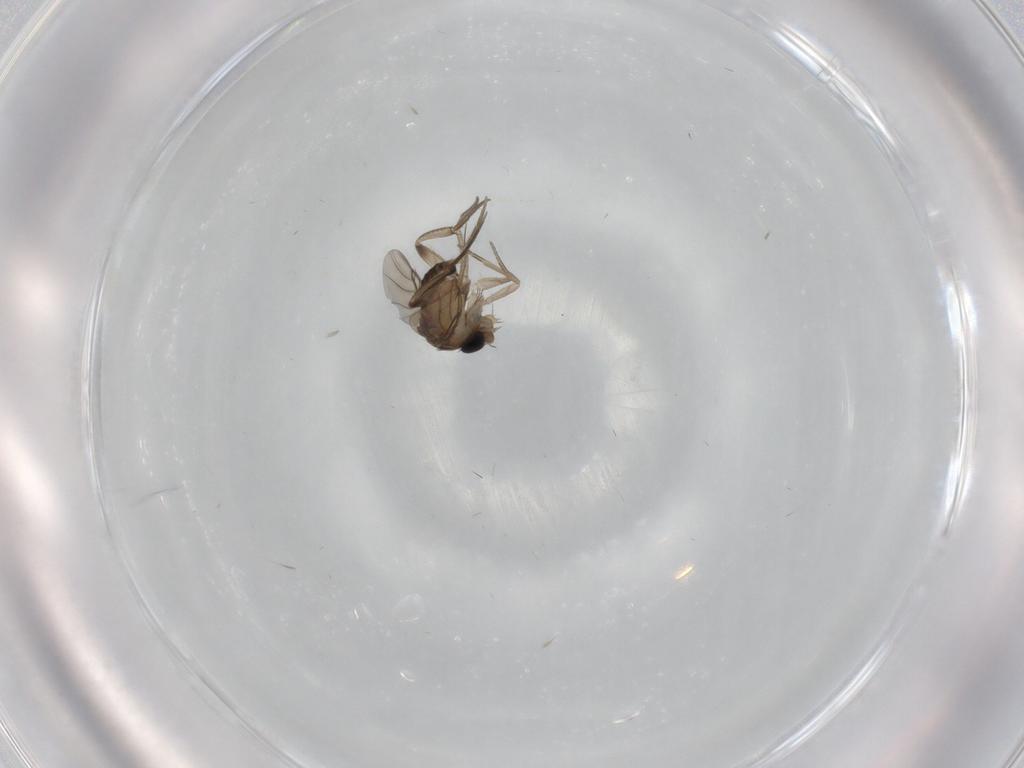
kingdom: Animalia
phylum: Arthropoda
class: Insecta
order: Diptera
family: Phoridae
